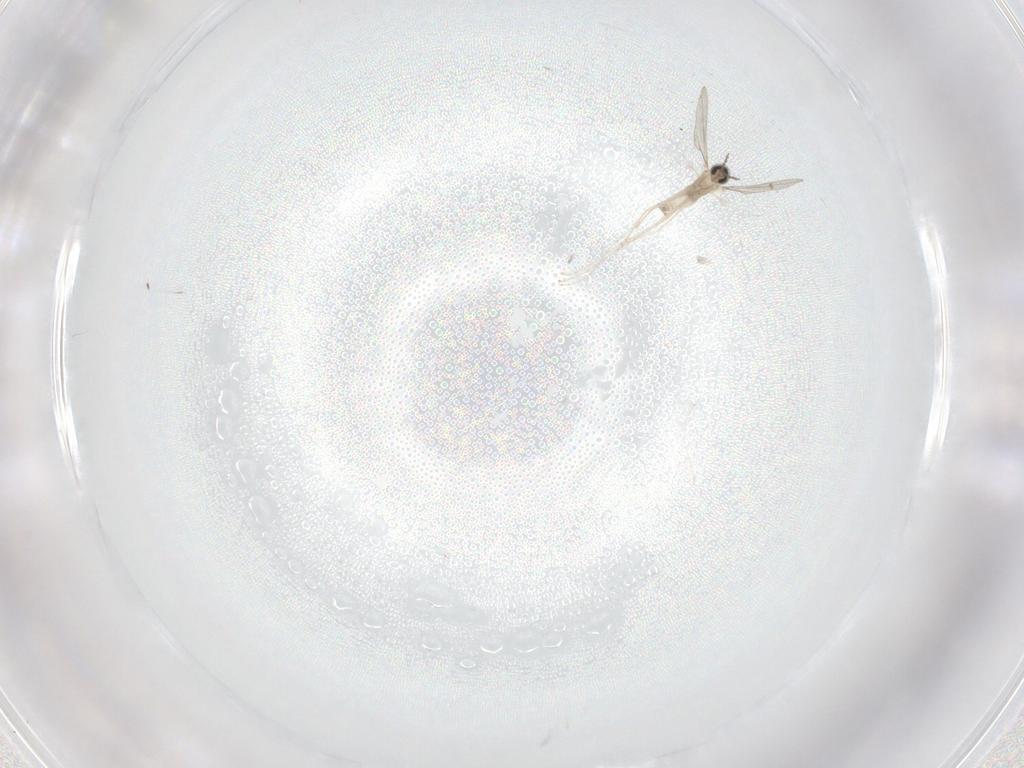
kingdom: Animalia
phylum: Arthropoda
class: Insecta
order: Diptera
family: Cecidomyiidae
